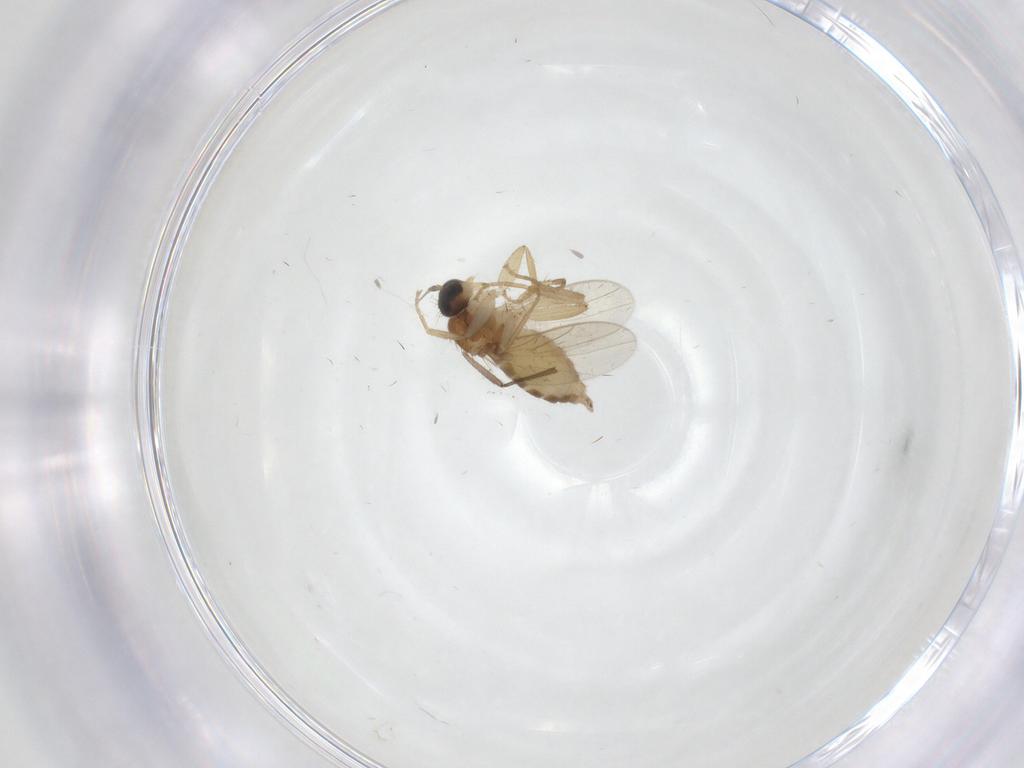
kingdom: Animalia
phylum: Arthropoda
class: Insecta
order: Diptera
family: Hybotidae
